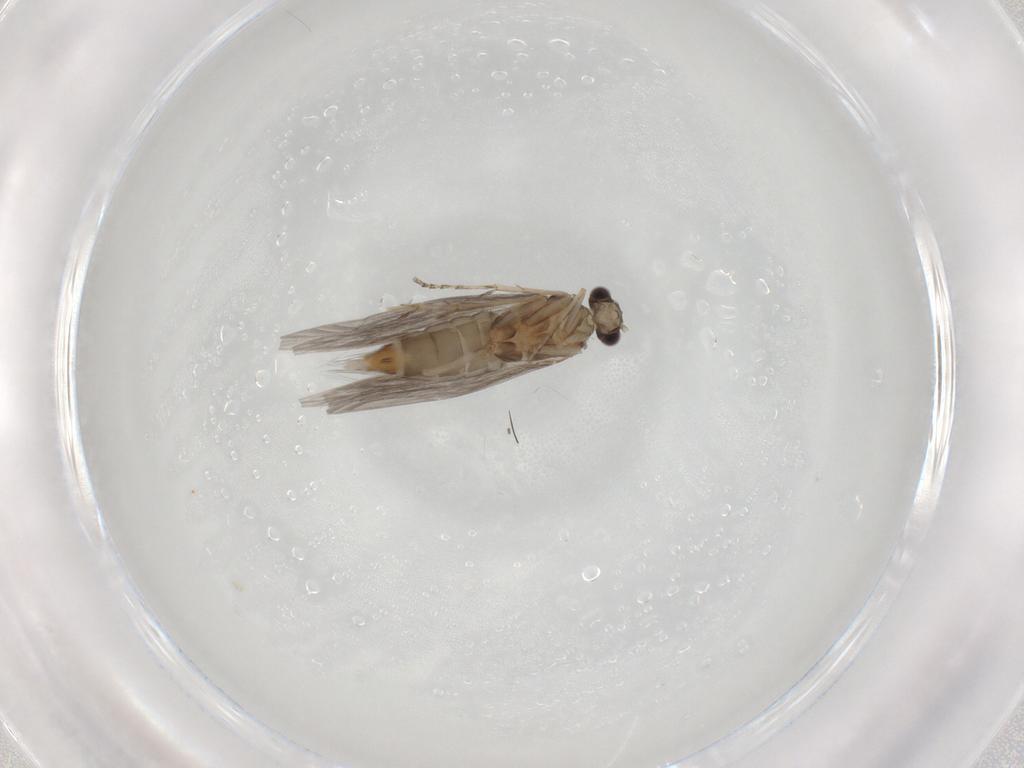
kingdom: Animalia
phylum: Arthropoda
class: Insecta
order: Trichoptera
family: Hydroptilidae
